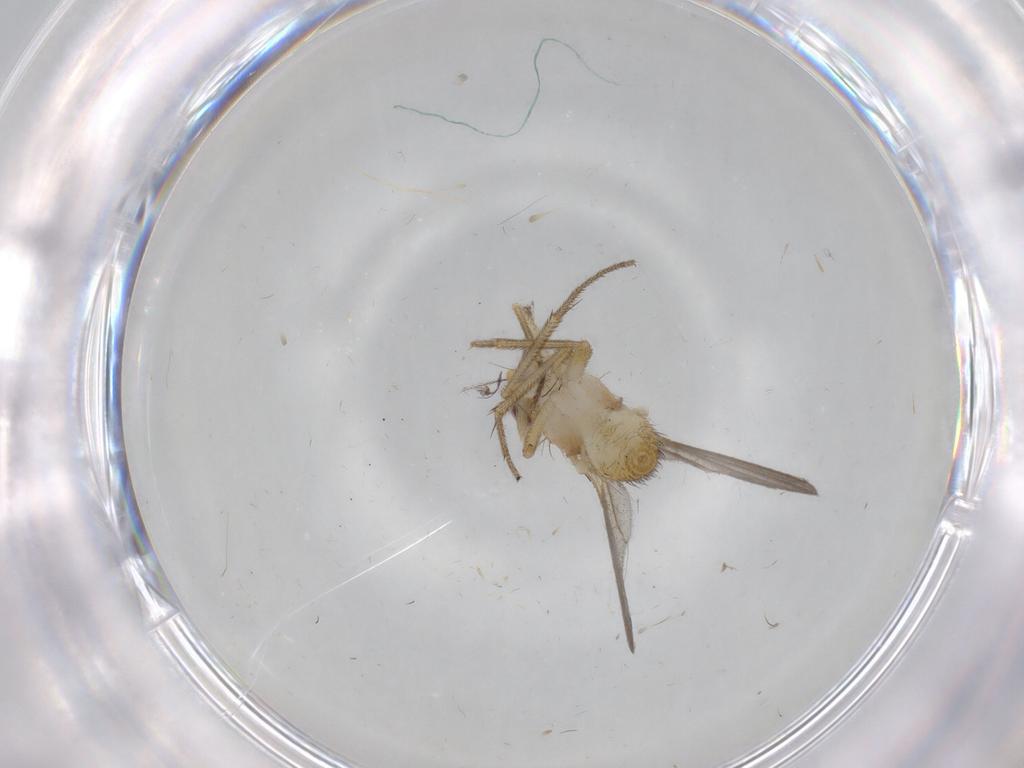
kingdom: Animalia
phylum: Arthropoda
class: Insecta
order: Diptera
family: Clusiidae
